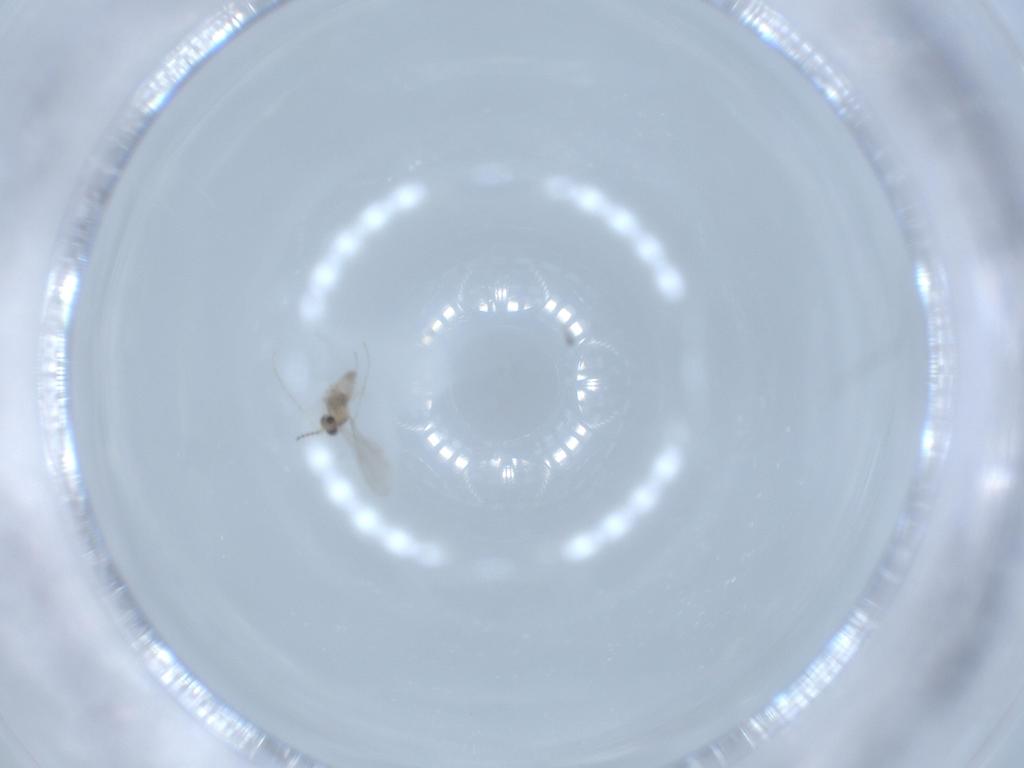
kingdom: Animalia
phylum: Arthropoda
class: Insecta
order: Diptera
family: Cecidomyiidae
